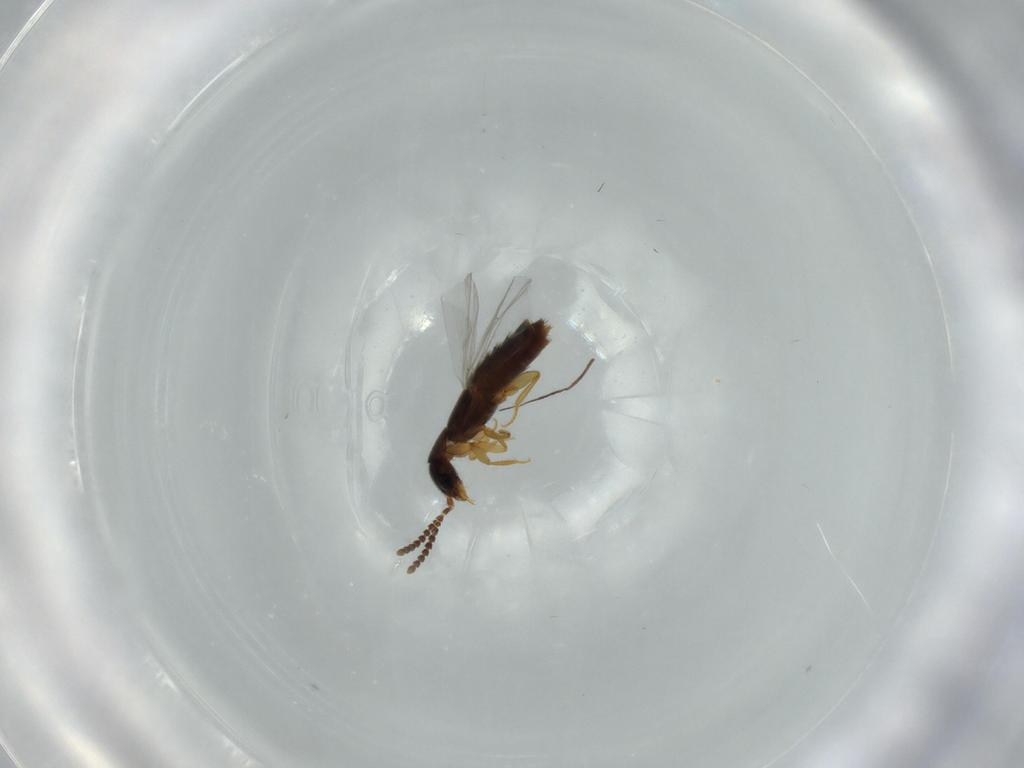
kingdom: Animalia
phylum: Arthropoda
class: Insecta
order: Coleoptera
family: Staphylinidae
